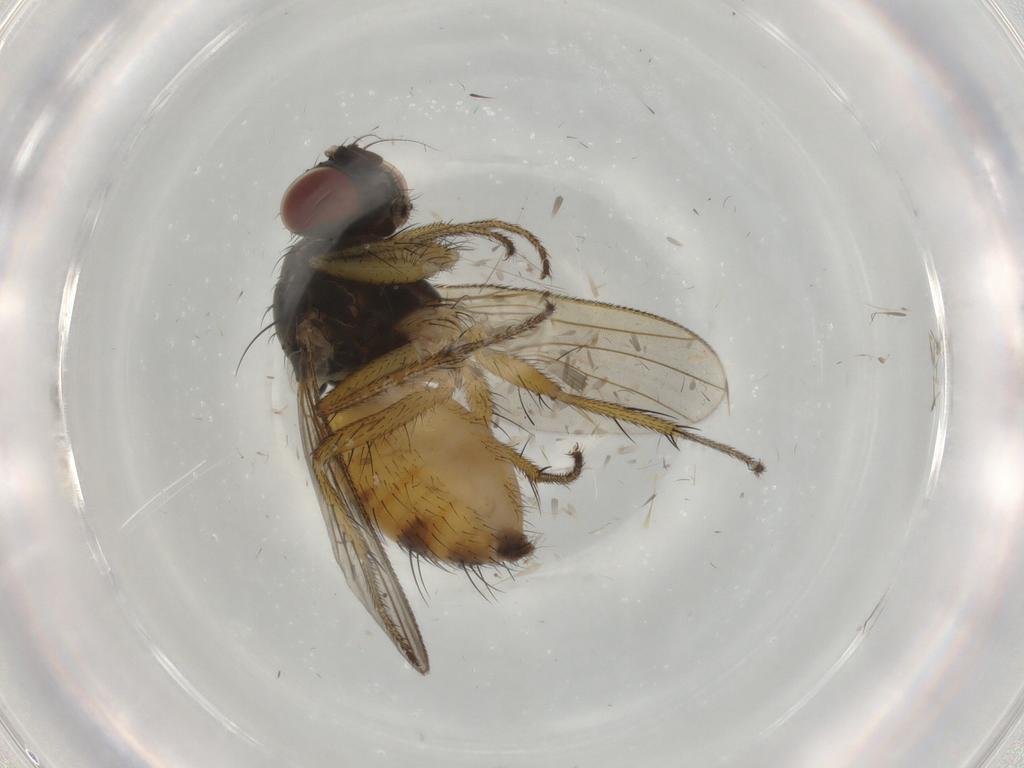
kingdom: Animalia
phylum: Arthropoda
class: Insecta
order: Diptera
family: Muscidae
